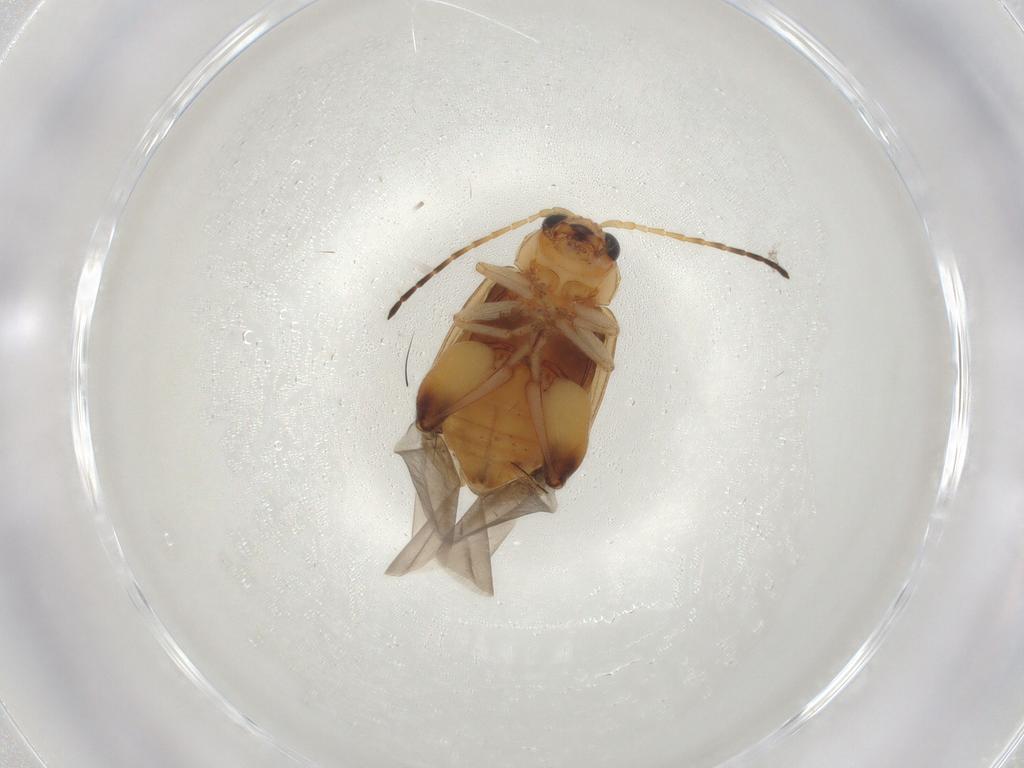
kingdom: Animalia
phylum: Arthropoda
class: Insecta
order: Coleoptera
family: Chrysomelidae
